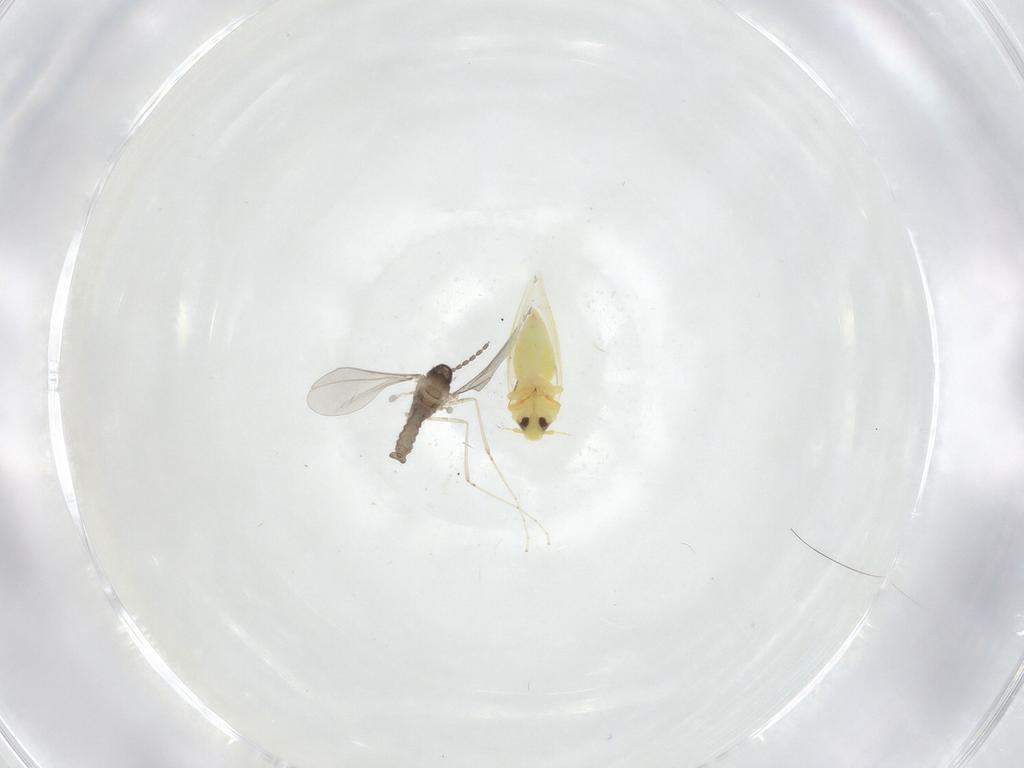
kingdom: Animalia
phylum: Arthropoda
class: Insecta
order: Hemiptera
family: Aleyrodidae
